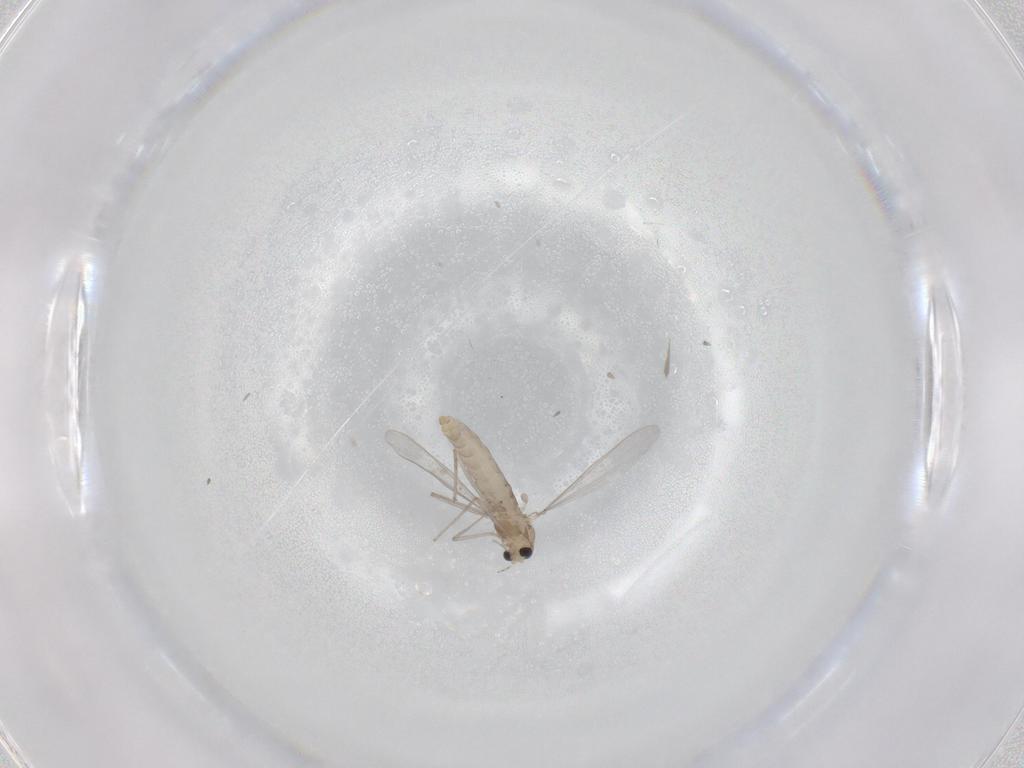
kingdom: Animalia
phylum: Arthropoda
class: Insecta
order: Diptera
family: Chironomidae
